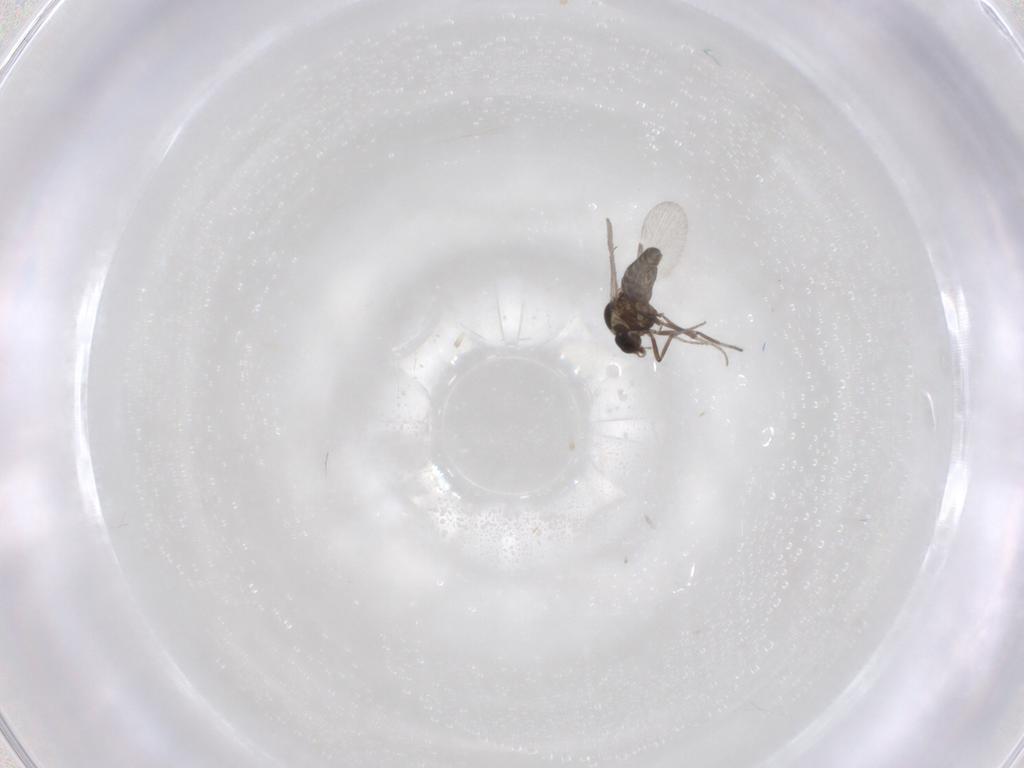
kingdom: Animalia
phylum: Arthropoda
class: Insecta
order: Diptera
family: Ceratopogonidae
